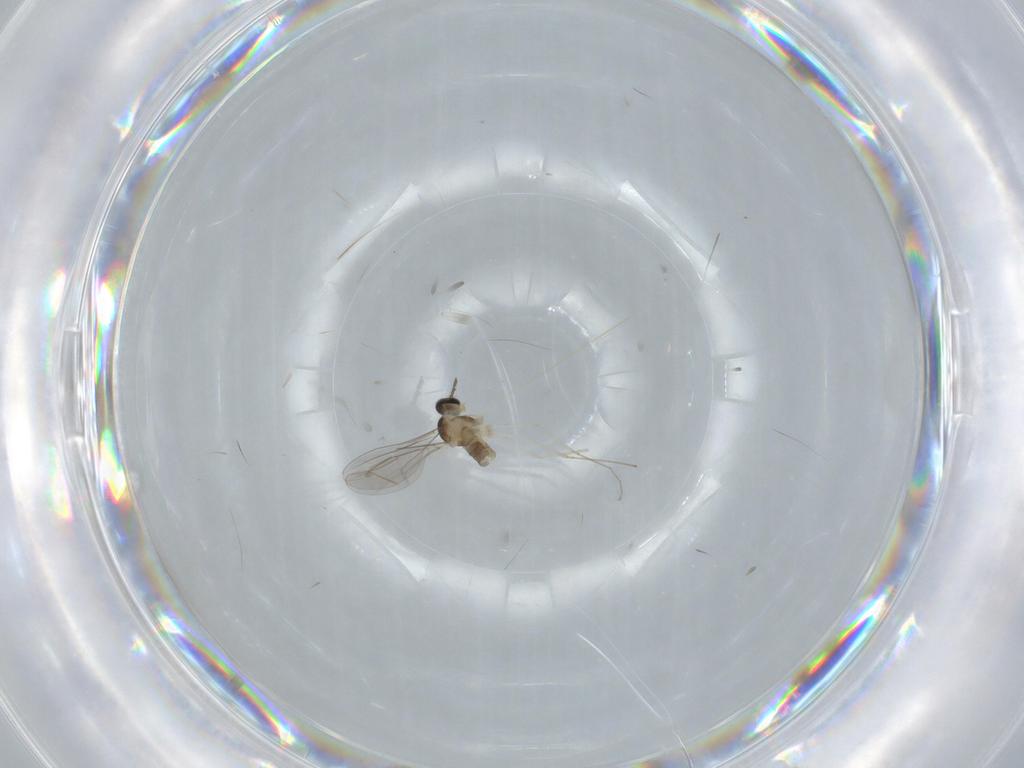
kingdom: Animalia
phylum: Arthropoda
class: Insecta
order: Diptera
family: Cecidomyiidae
